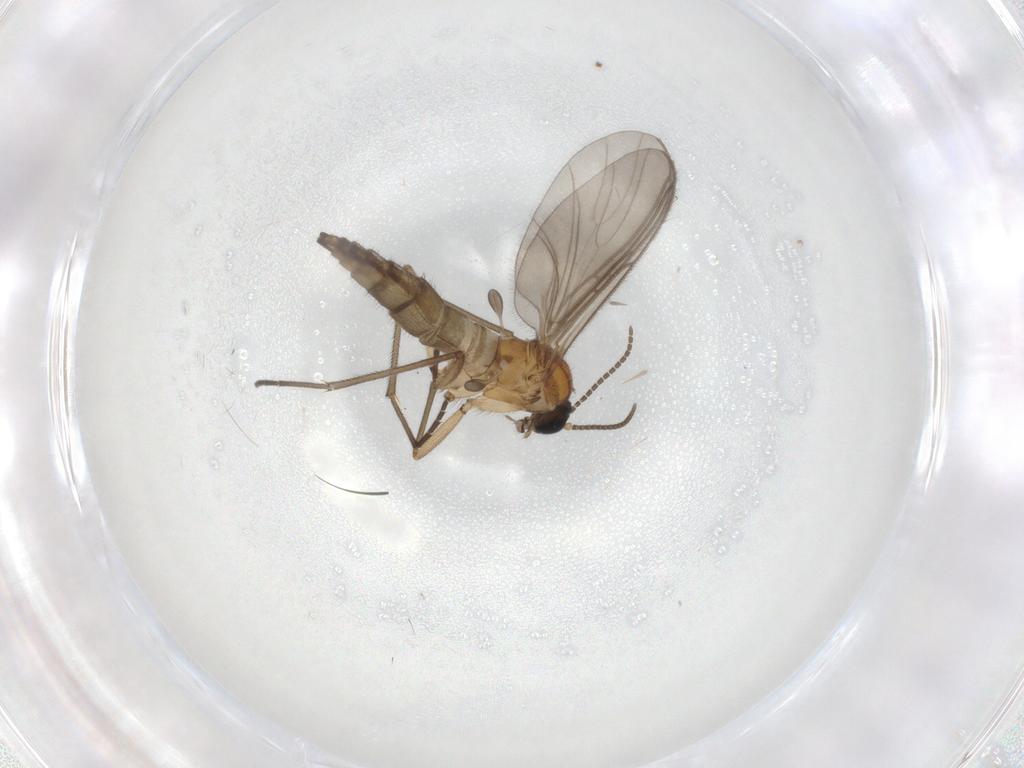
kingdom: Animalia
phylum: Arthropoda
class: Insecta
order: Diptera
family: Sciaridae
